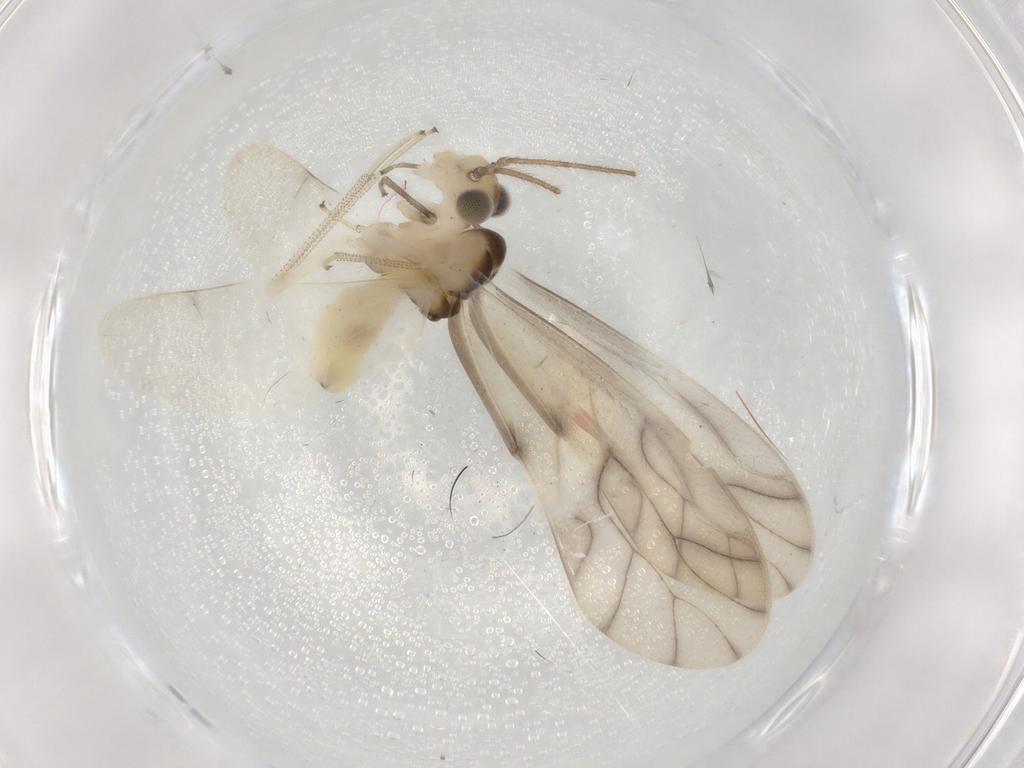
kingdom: Animalia
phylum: Arthropoda
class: Insecta
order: Psocodea
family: Caeciliusidae
